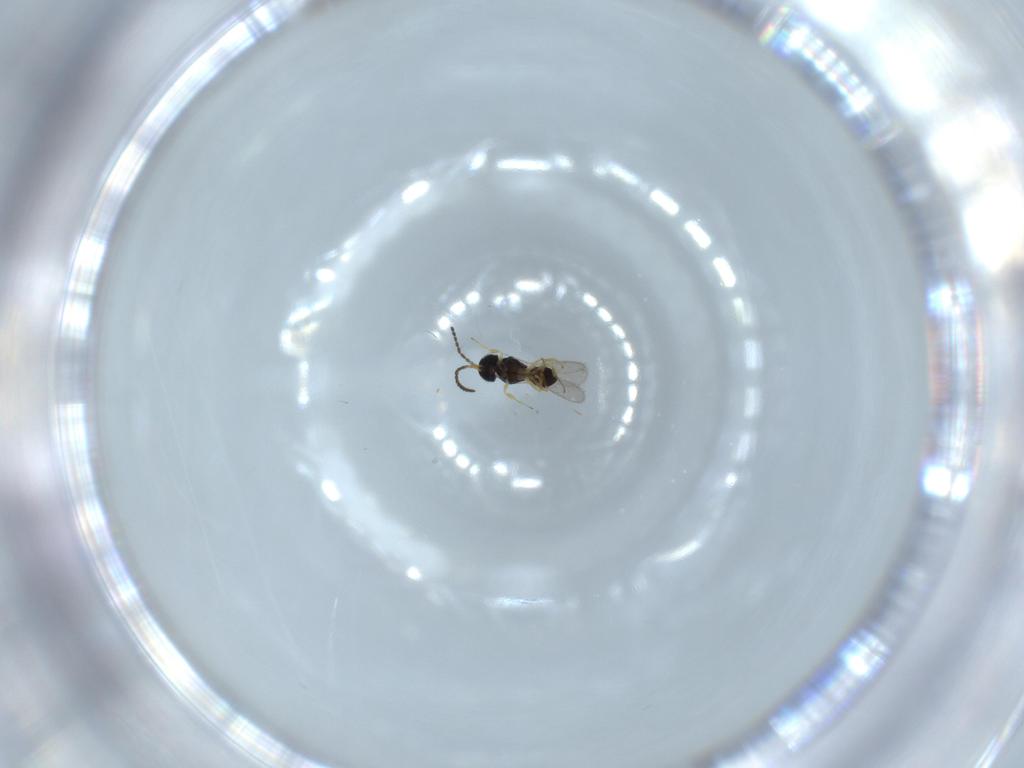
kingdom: Animalia
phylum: Arthropoda
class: Insecta
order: Hymenoptera
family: Scelionidae
